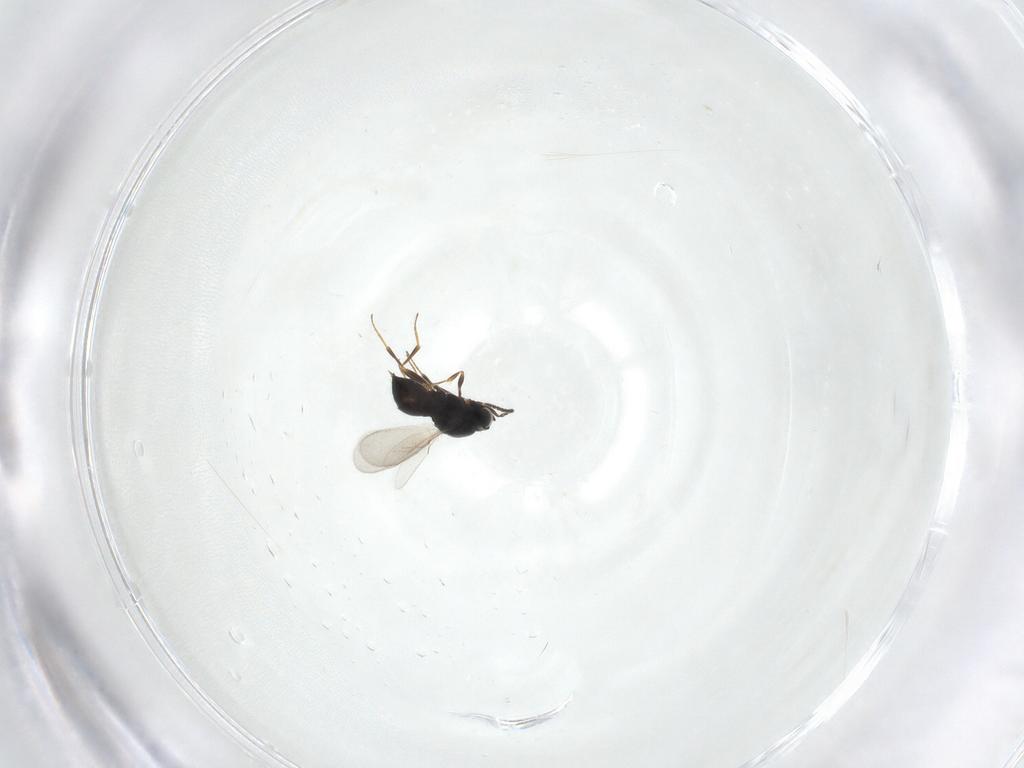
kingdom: Animalia
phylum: Arthropoda
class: Insecta
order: Hymenoptera
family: Scelionidae
